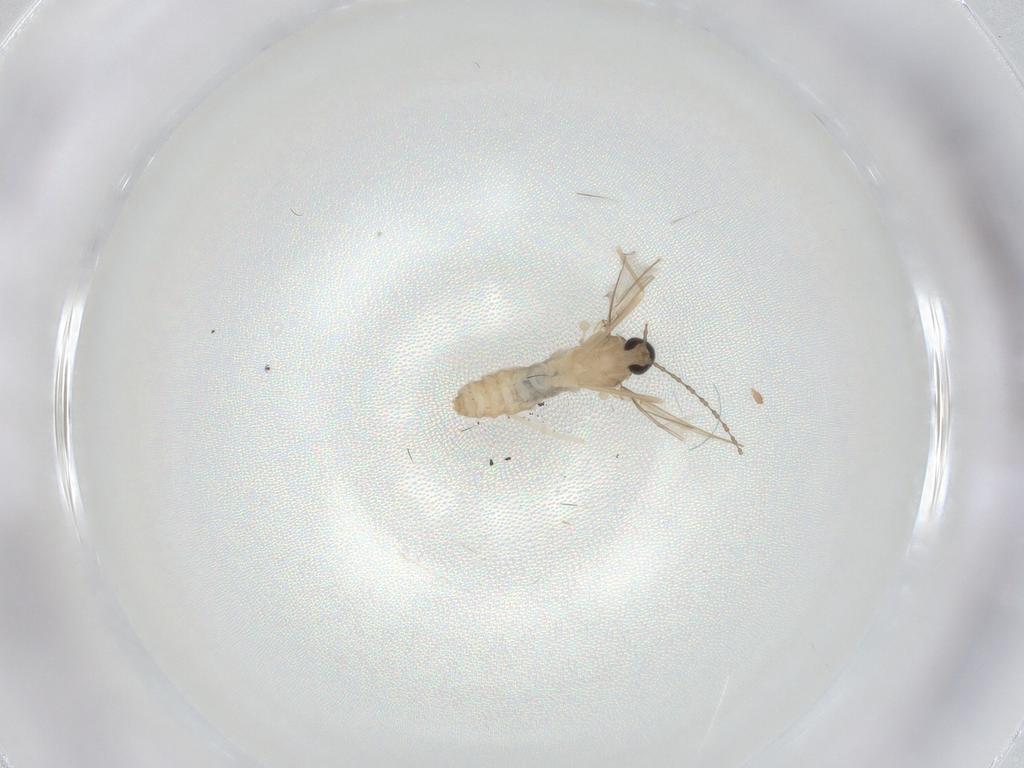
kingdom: Animalia
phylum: Arthropoda
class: Insecta
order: Diptera
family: Cecidomyiidae
